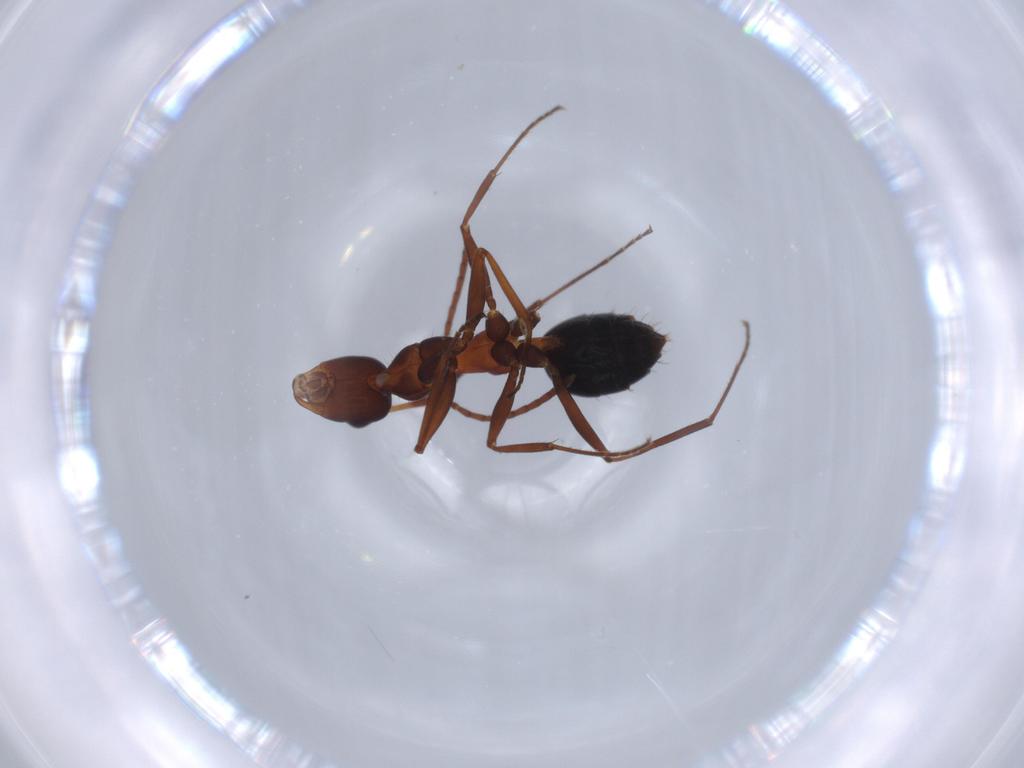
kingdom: Animalia
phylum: Arthropoda
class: Insecta
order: Hymenoptera
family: Formicidae
